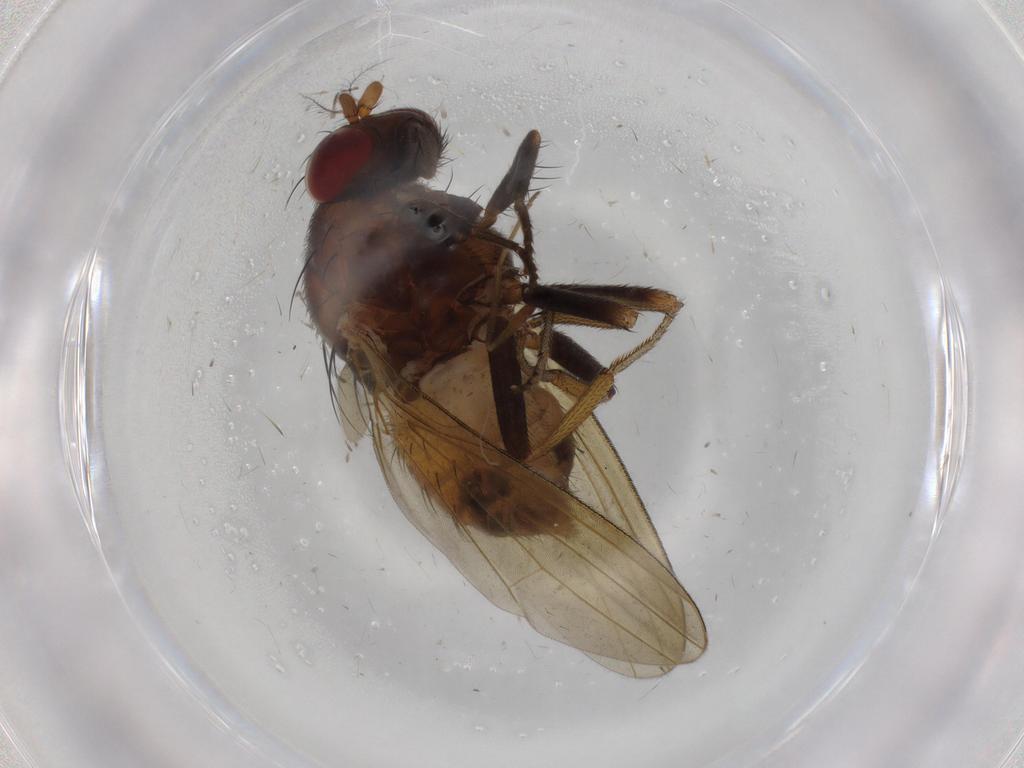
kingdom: Animalia
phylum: Arthropoda
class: Insecta
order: Diptera
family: Lauxaniidae
